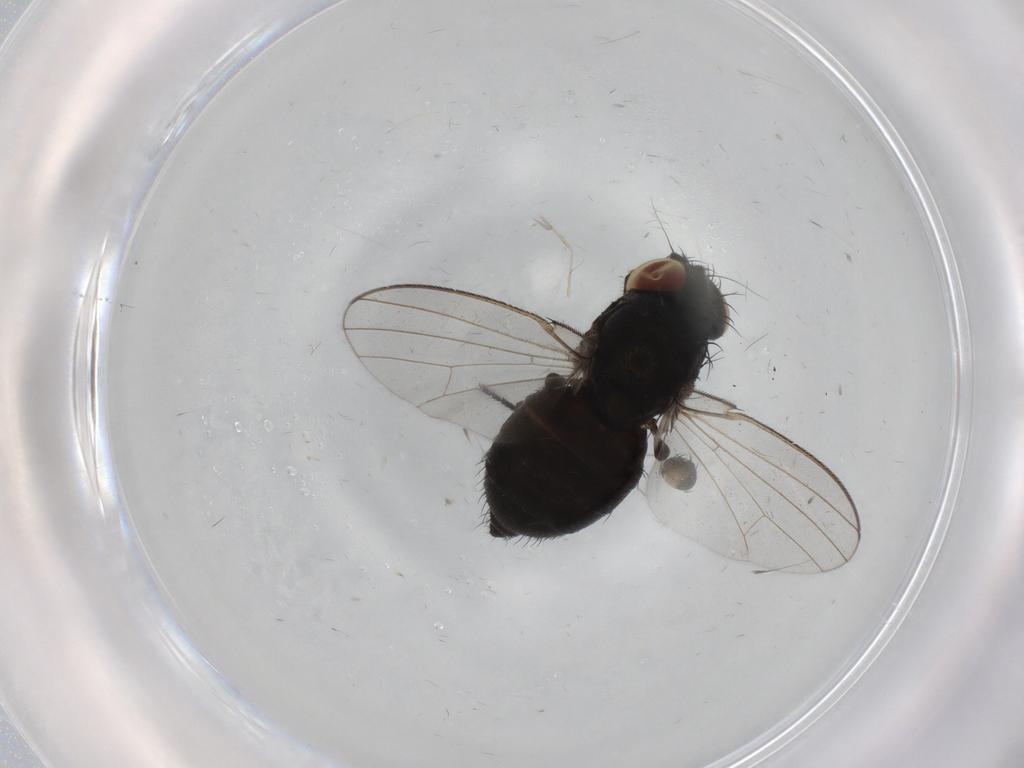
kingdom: Animalia
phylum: Arthropoda
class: Insecta
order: Diptera
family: Milichiidae
